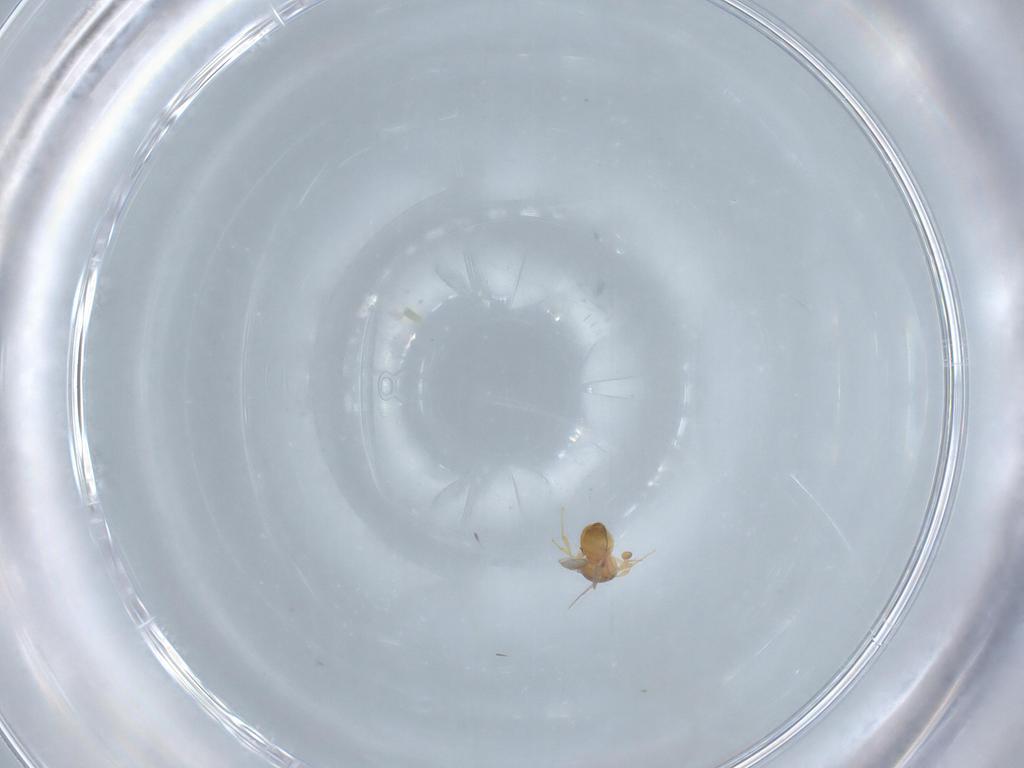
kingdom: Animalia
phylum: Arthropoda
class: Insecta
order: Hymenoptera
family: Scelionidae
